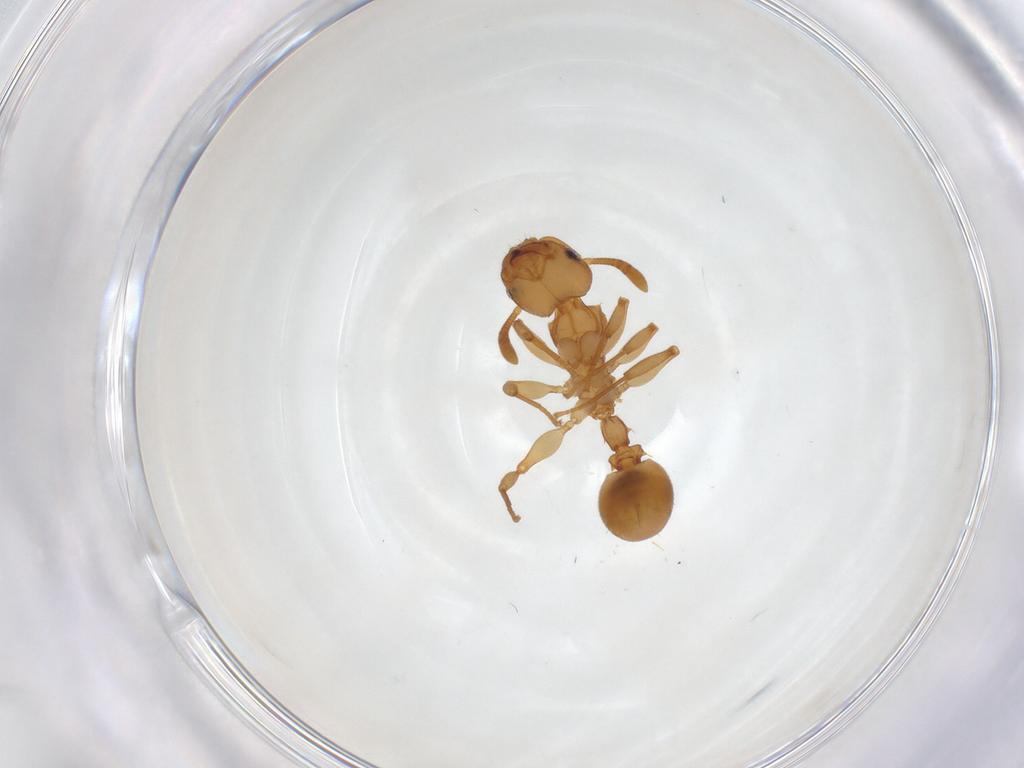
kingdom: Animalia
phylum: Arthropoda
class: Insecta
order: Hymenoptera
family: Formicidae
